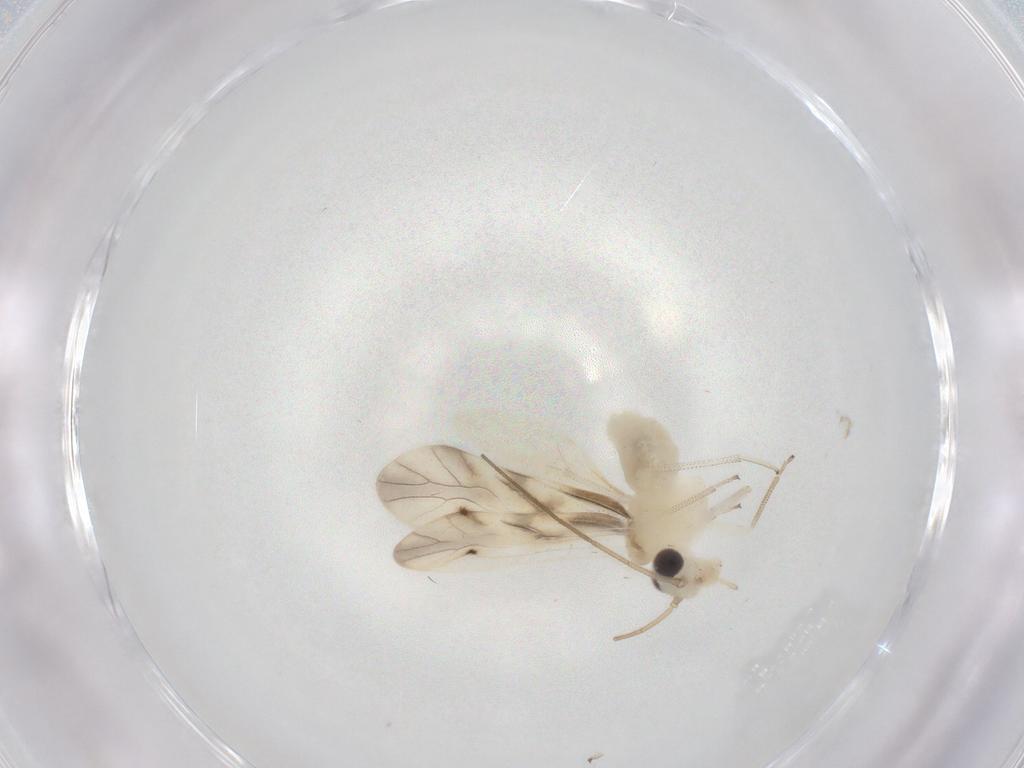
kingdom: Animalia
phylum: Arthropoda
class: Insecta
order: Psocodea
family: Caeciliusidae
